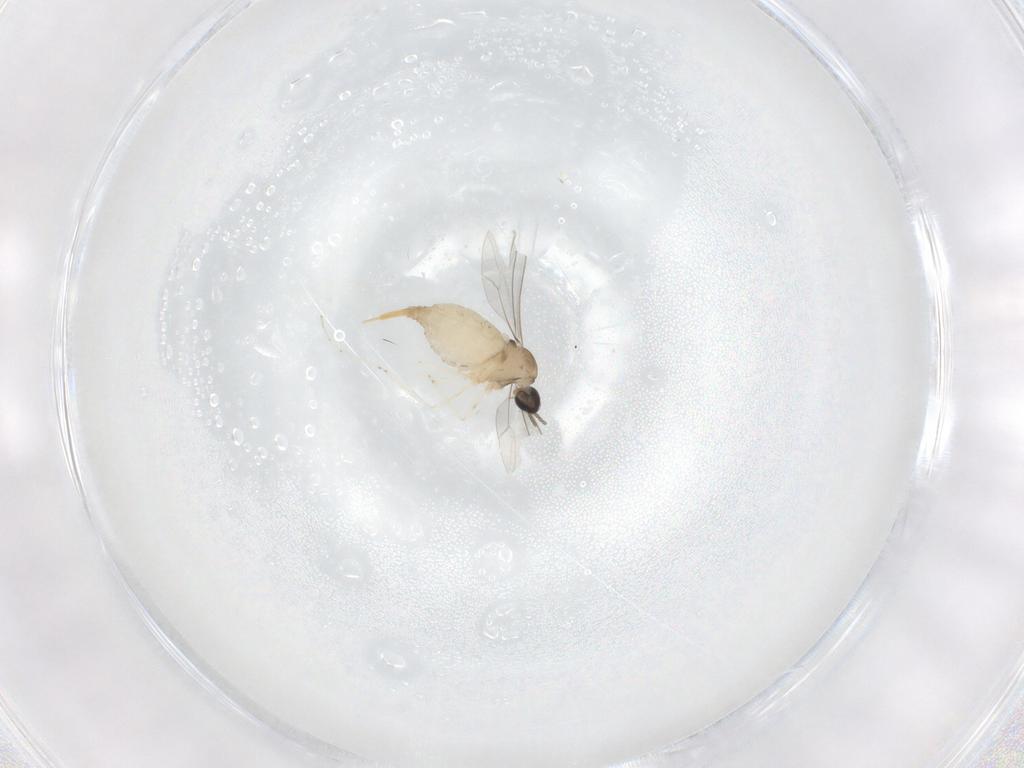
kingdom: Animalia
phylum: Arthropoda
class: Insecta
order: Diptera
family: Cecidomyiidae
